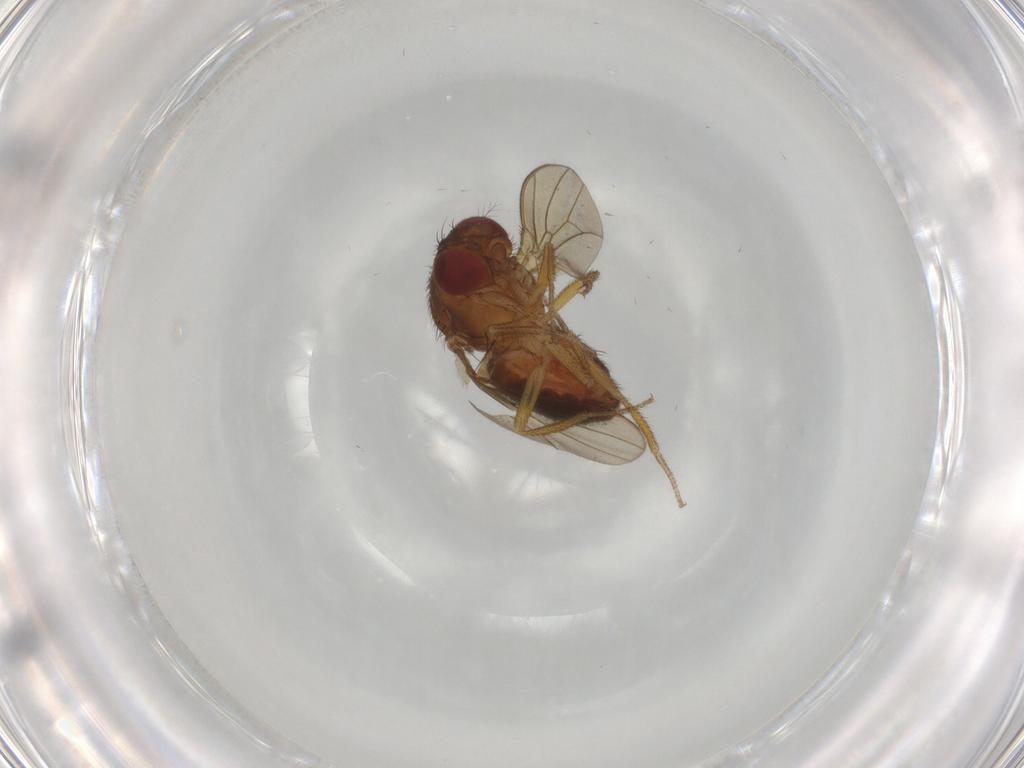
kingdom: Animalia
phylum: Arthropoda
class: Insecta
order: Diptera
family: Drosophilidae
